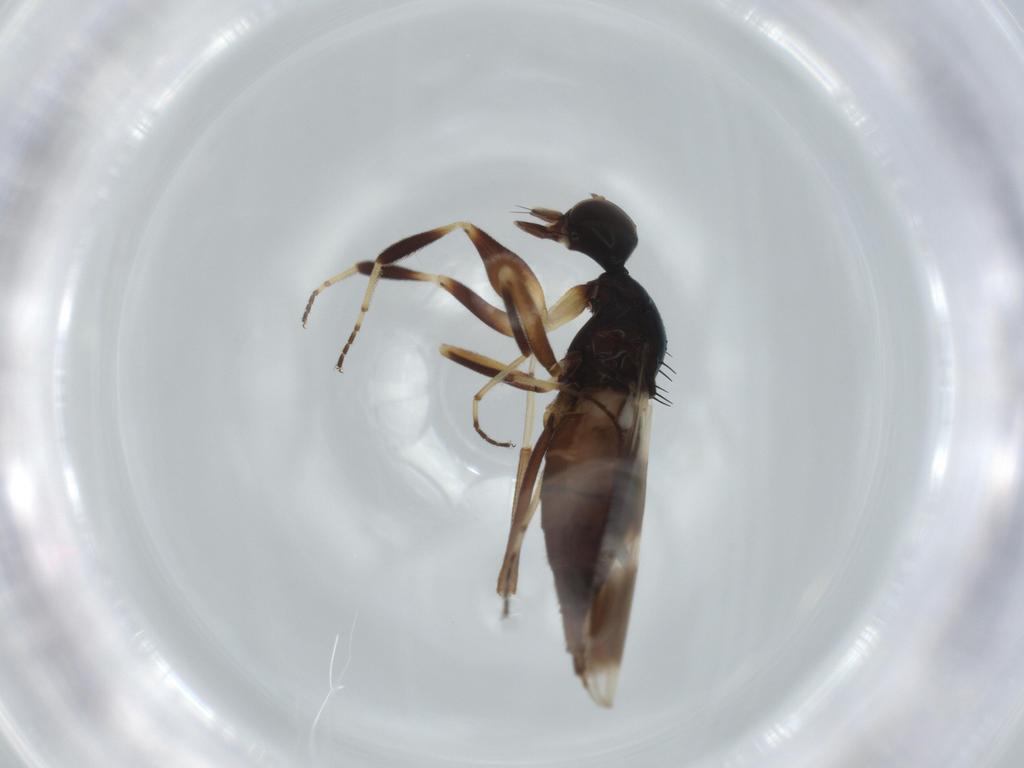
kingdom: Animalia
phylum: Arthropoda
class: Insecta
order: Diptera
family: Hybotidae
